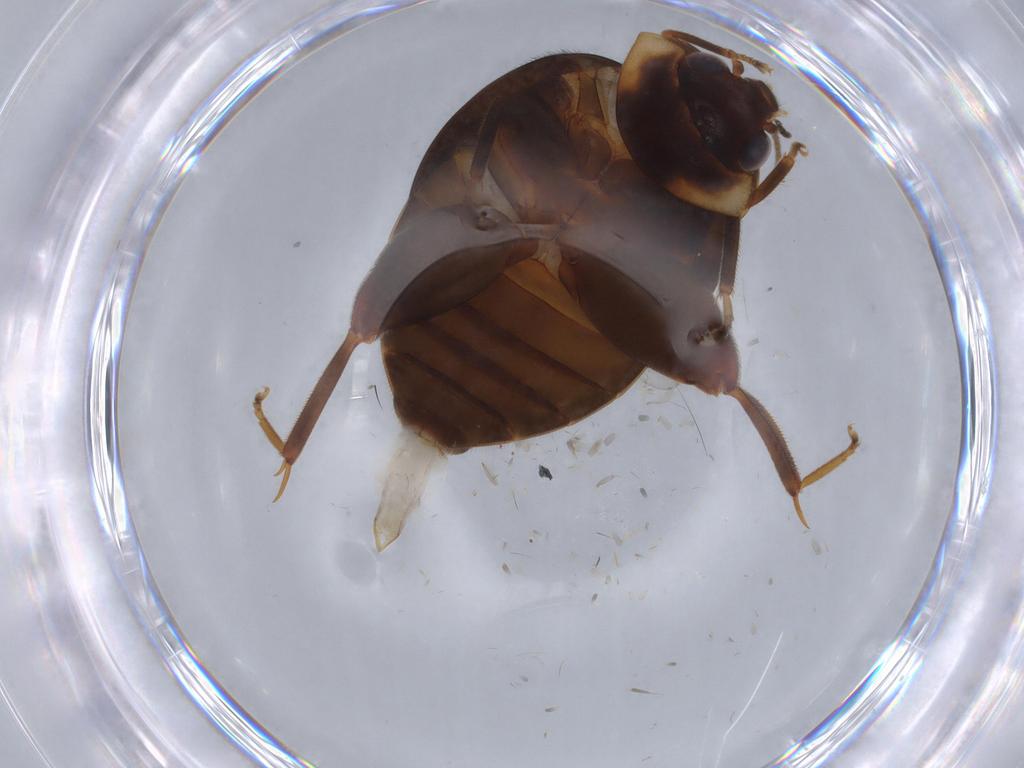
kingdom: Animalia
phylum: Arthropoda
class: Insecta
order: Coleoptera
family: Scirtidae
